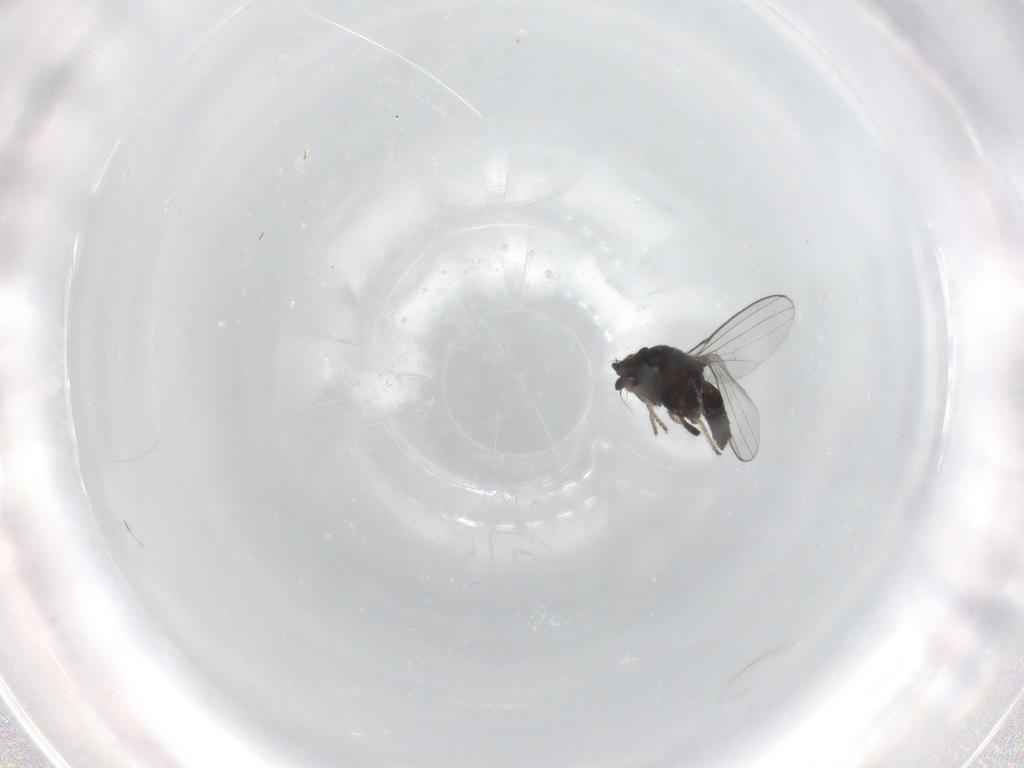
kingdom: Animalia
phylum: Arthropoda
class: Insecta
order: Diptera
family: Milichiidae
